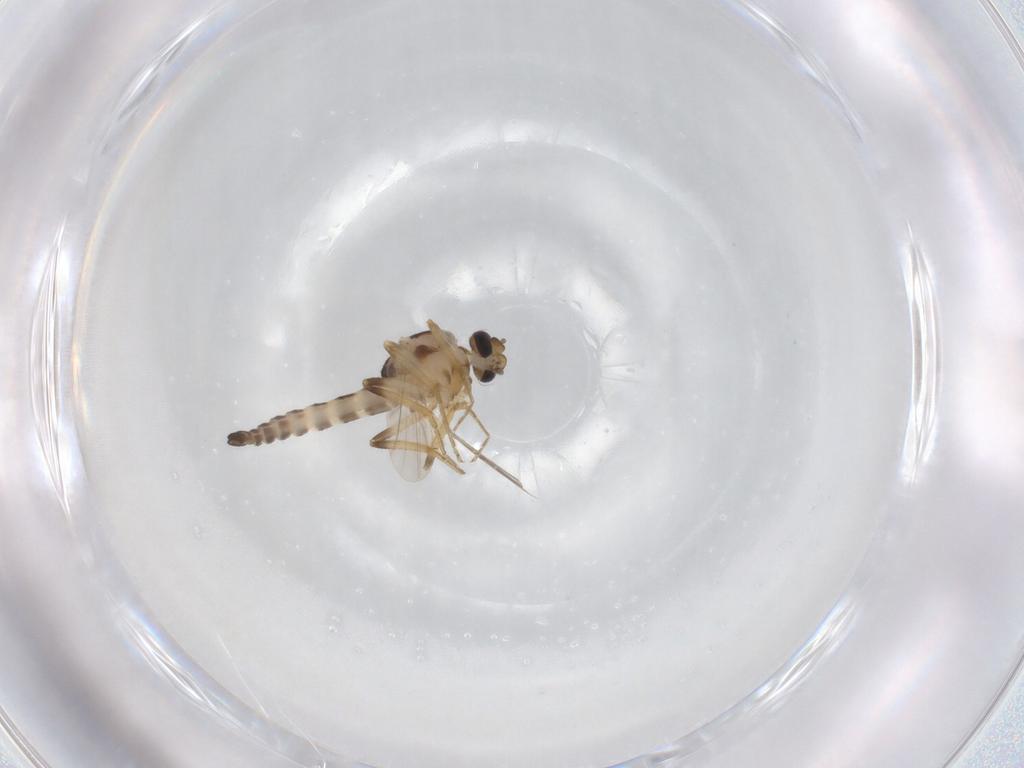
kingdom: Animalia
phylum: Arthropoda
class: Insecta
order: Diptera
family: Ceratopogonidae
